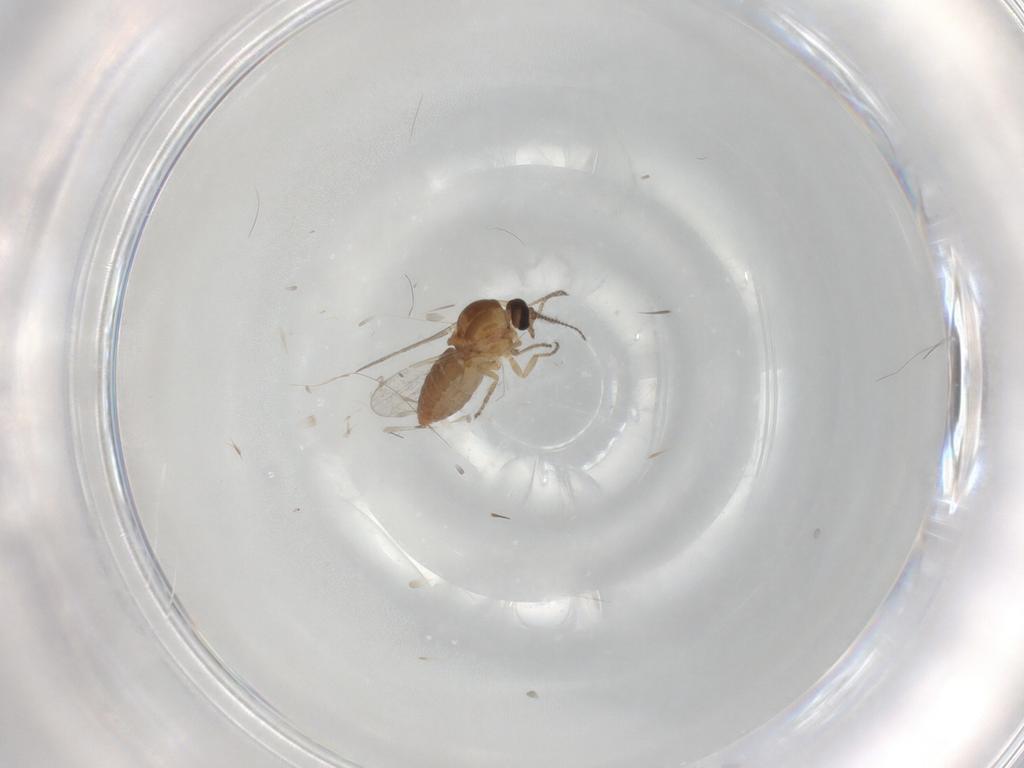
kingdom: Animalia
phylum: Arthropoda
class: Insecta
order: Diptera
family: Ceratopogonidae
